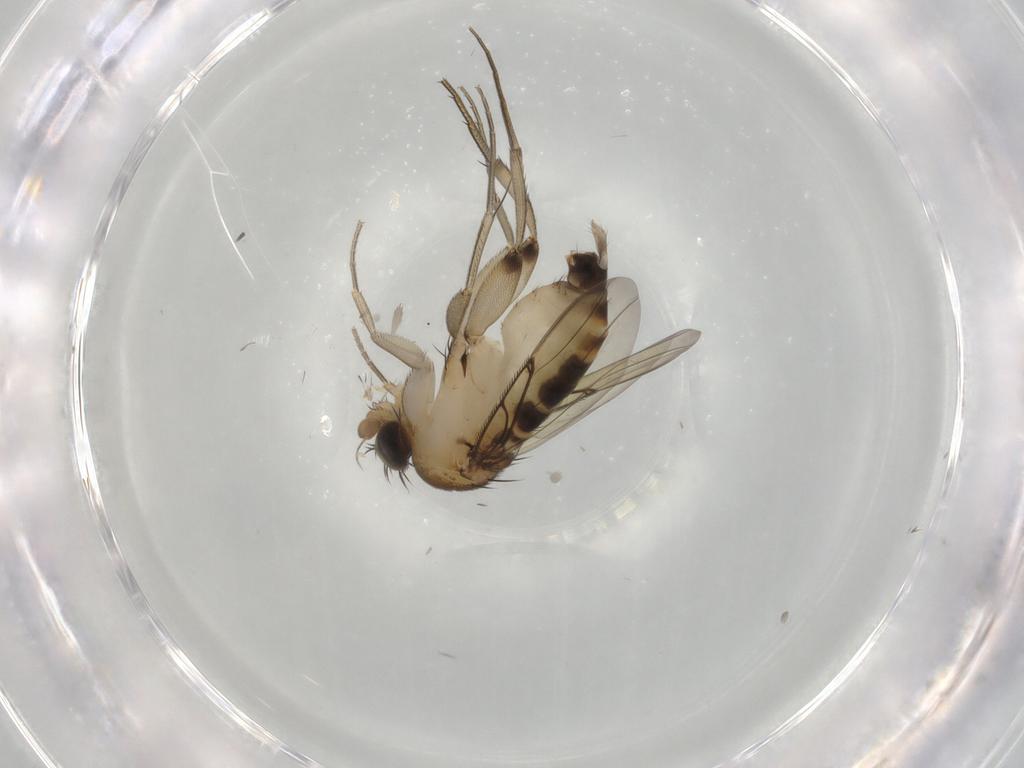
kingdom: Animalia
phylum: Arthropoda
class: Insecta
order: Diptera
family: Phoridae
